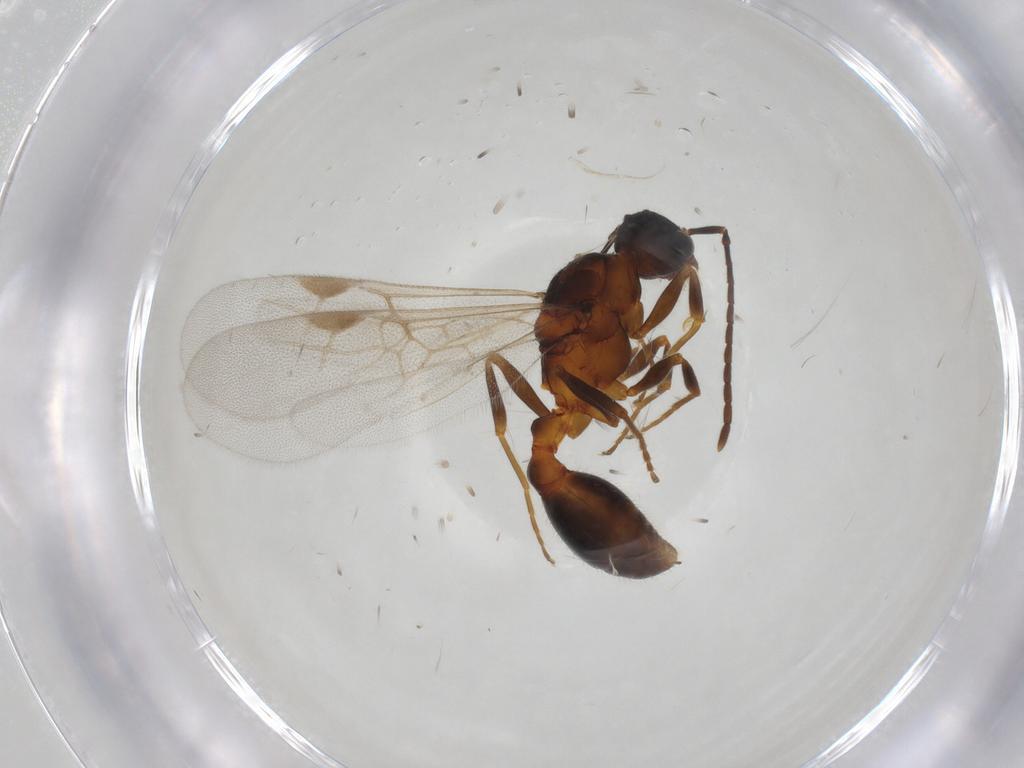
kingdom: Animalia
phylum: Arthropoda
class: Insecta
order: Hymenoptera
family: Formicidae
